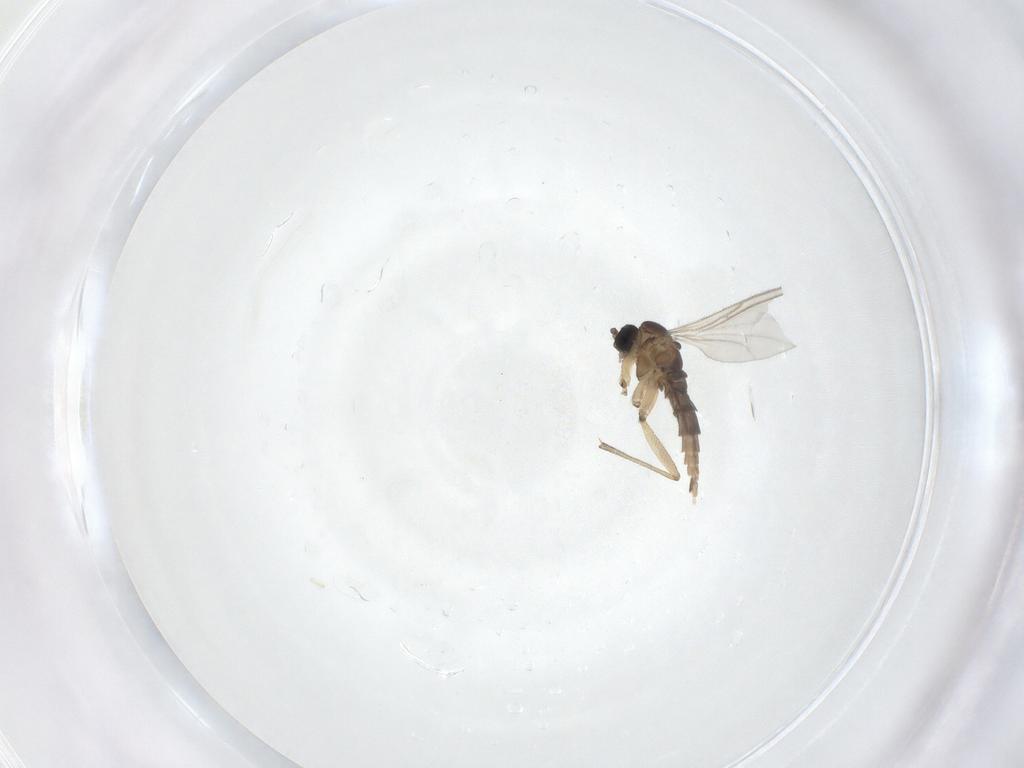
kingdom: Animalia
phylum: Arthropoda
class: Insecta
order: Diptera
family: Sciaridae
